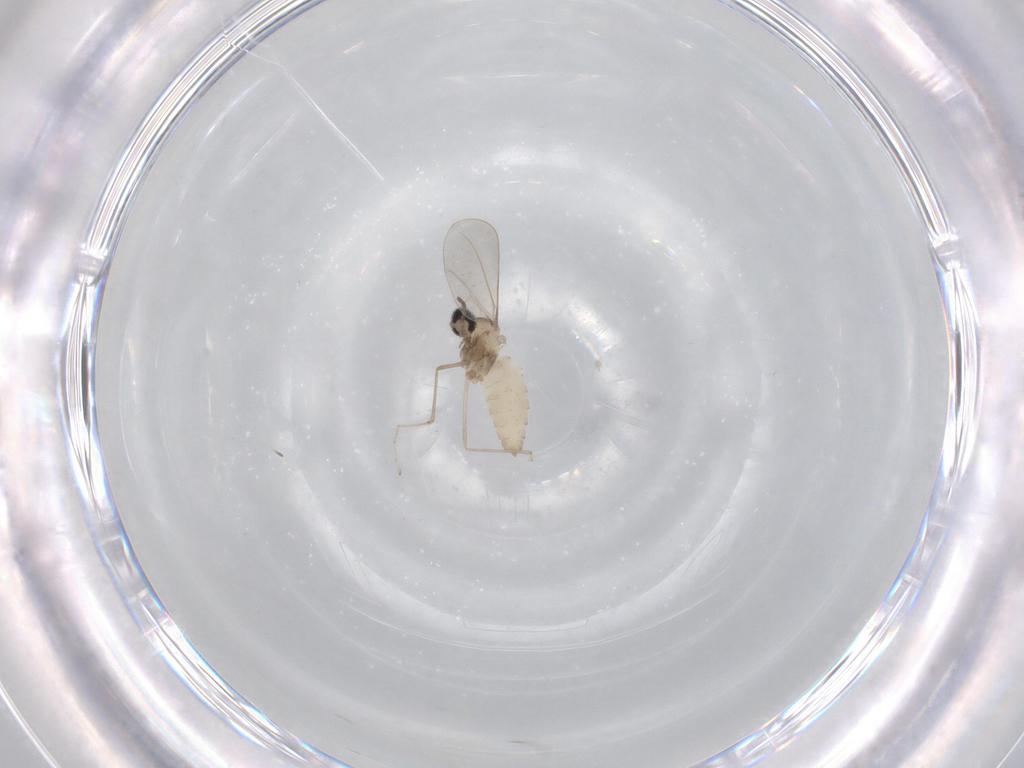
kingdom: Animalia
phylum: Arthropoda
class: Insecta
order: Diptera
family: Cecidomyiidae
